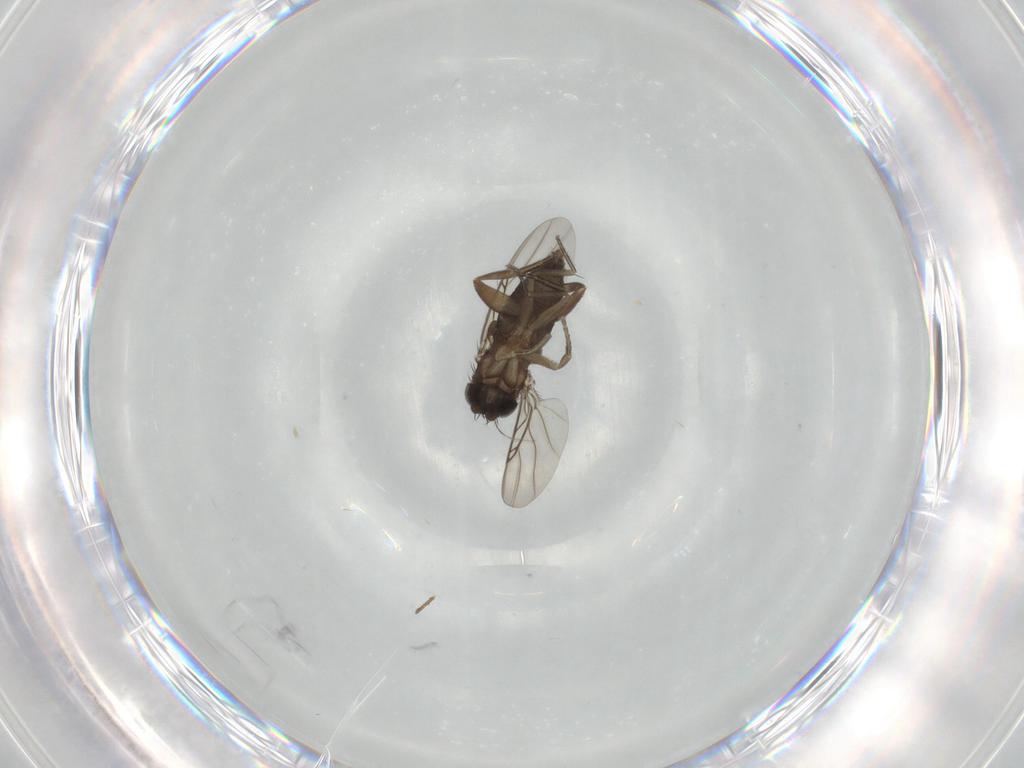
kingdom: Animalia
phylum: Arthropoda
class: Insecta
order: Diptera
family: Phoridae
